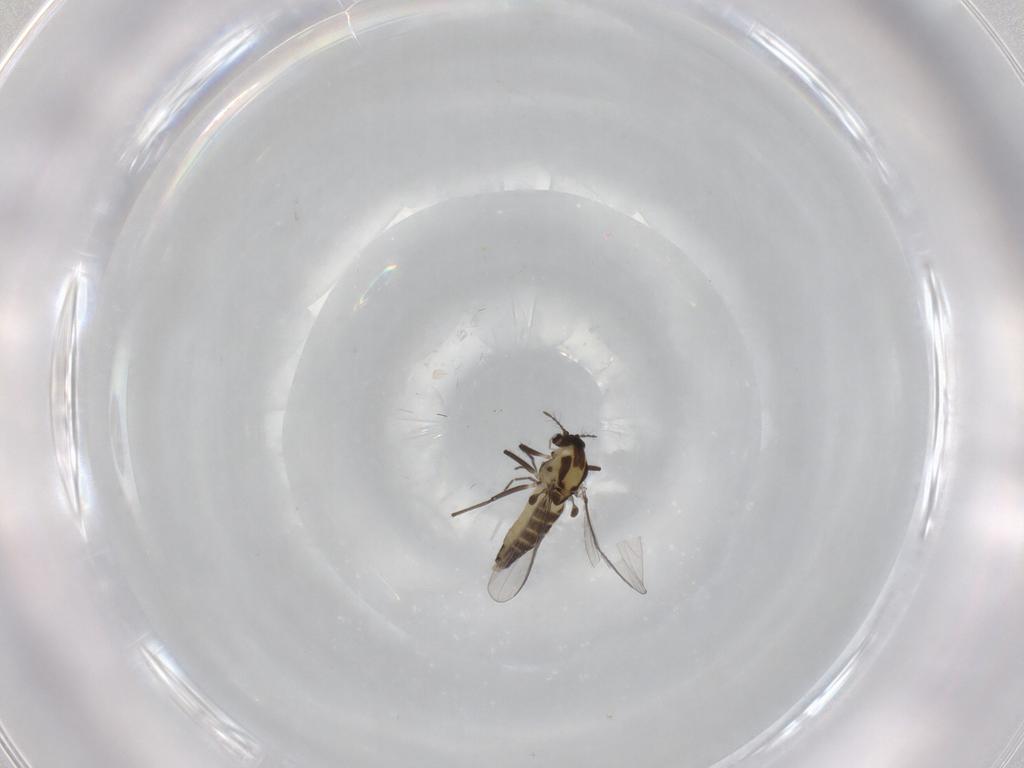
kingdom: Animalia
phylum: Arthropoda
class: Insecta
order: Diptera
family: Chironomidae
